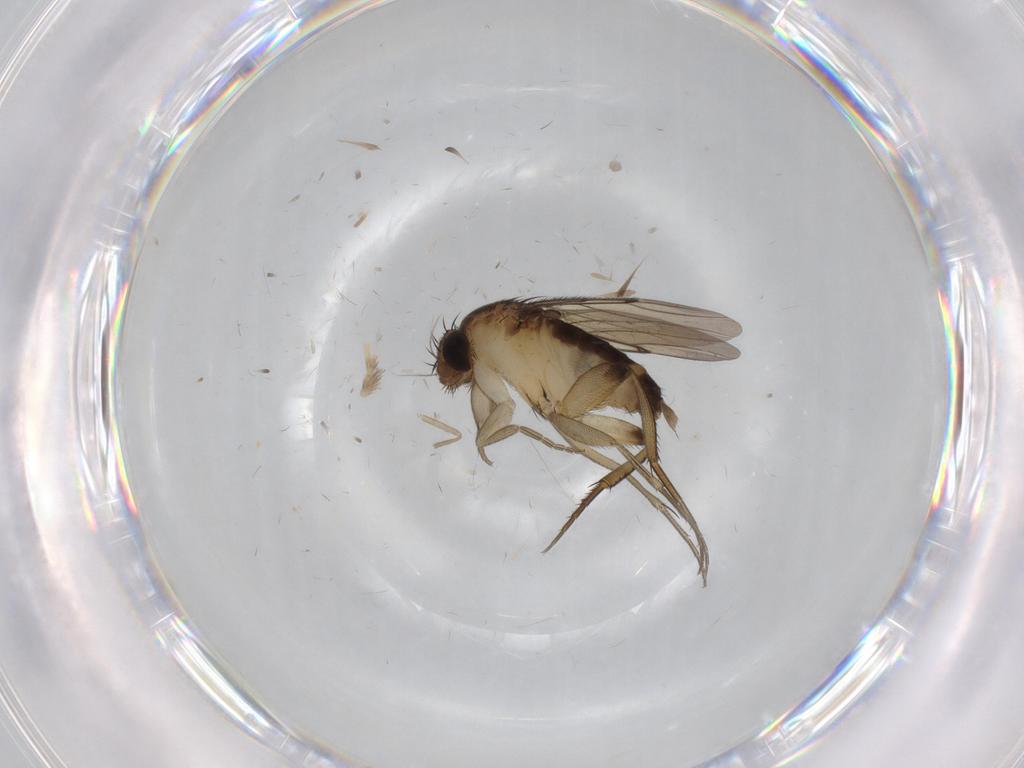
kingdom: Animalia
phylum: Arthropoda
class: Insecta
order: Diptera
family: Phoridae
